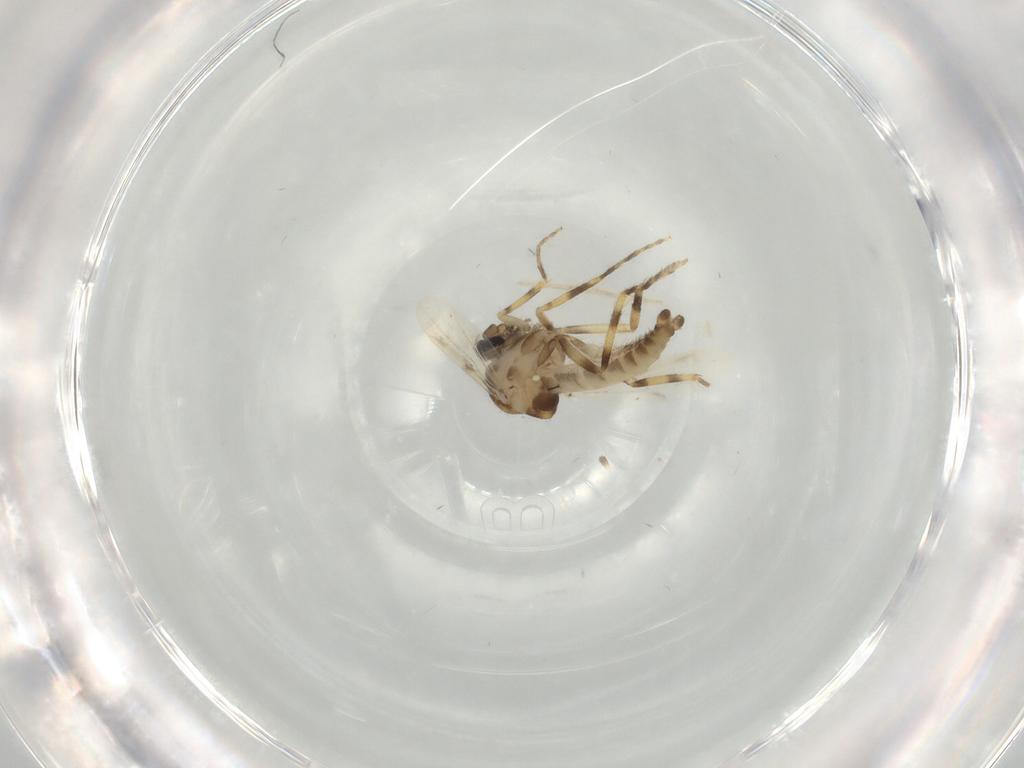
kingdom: Animalia
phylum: Arthropoda
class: Insecta
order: Diptera
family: Ceratopogonidae
